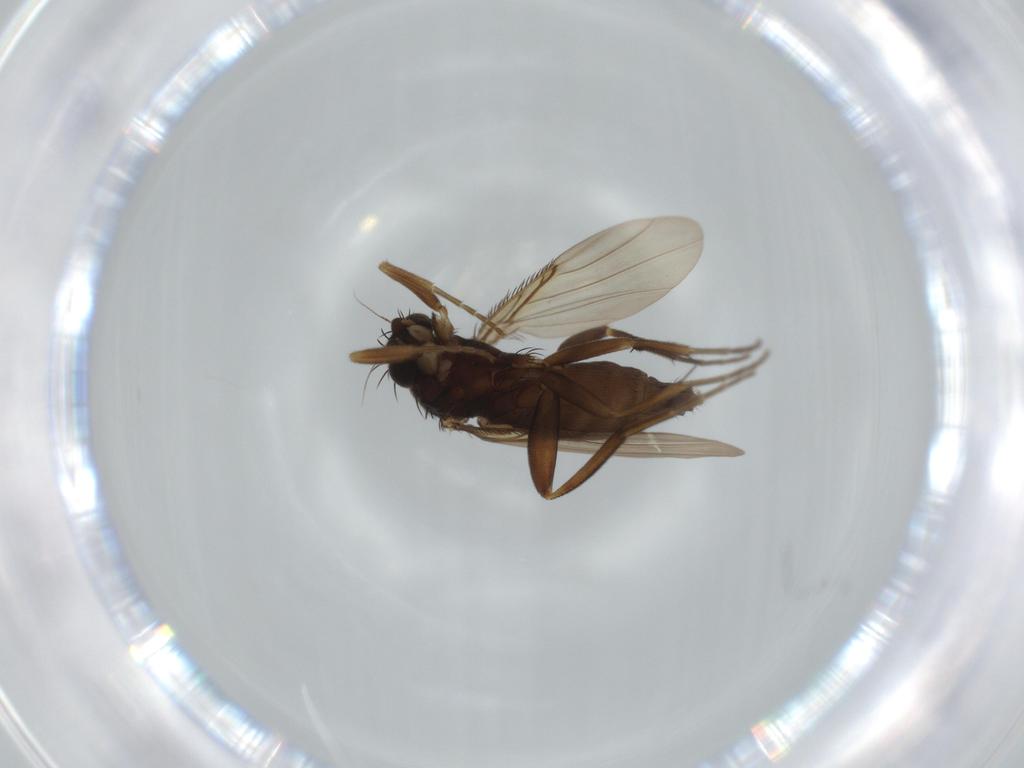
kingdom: Animalia
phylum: Arthropoda
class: Insecta
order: Diptera
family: Phoridae
